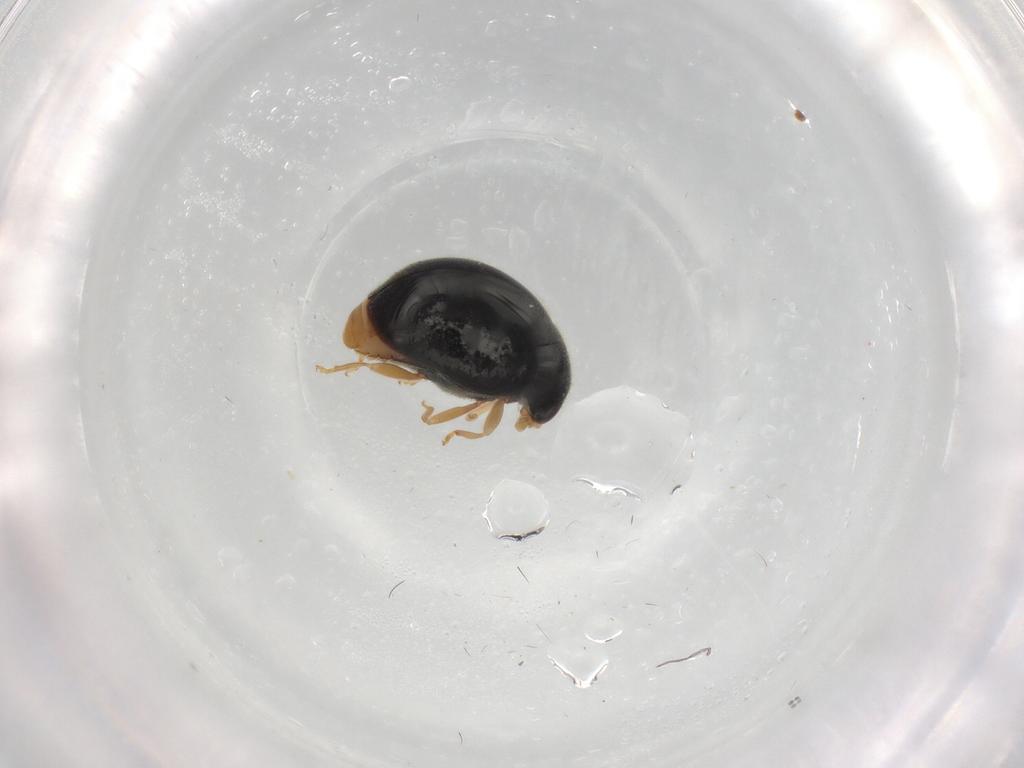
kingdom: Animalia
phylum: Arthropoda
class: Insecta
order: Coleoptera
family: Coccinellidae
